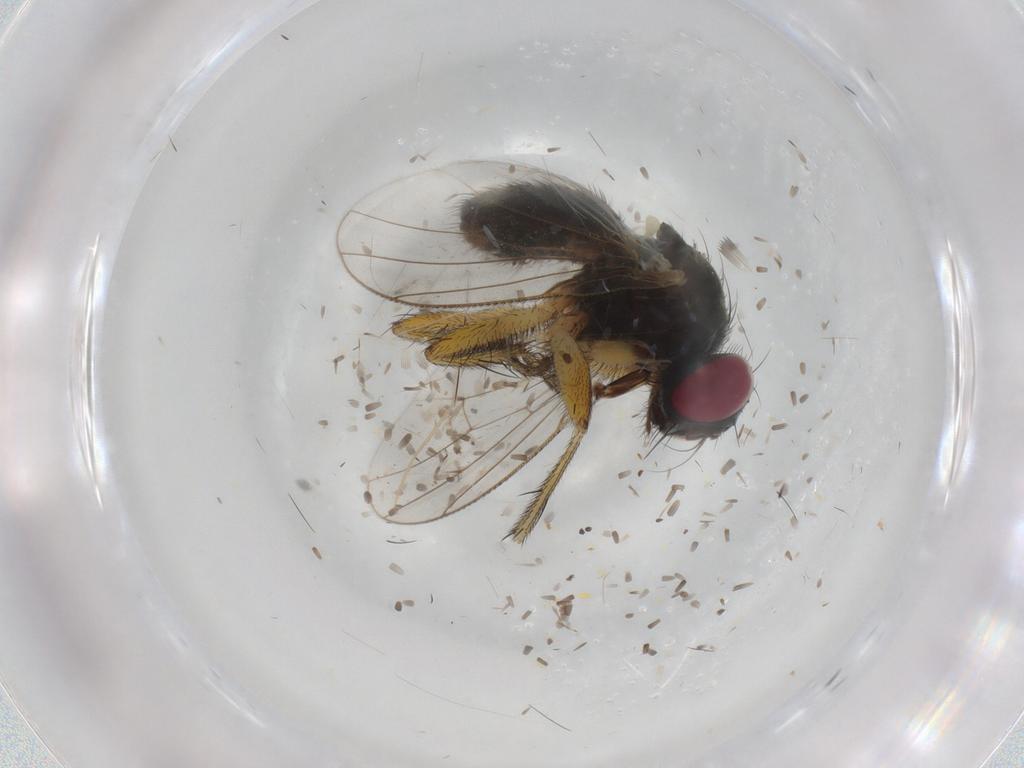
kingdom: Animalia
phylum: Arthropoda
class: Insecta
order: Diptera
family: Muscidae
